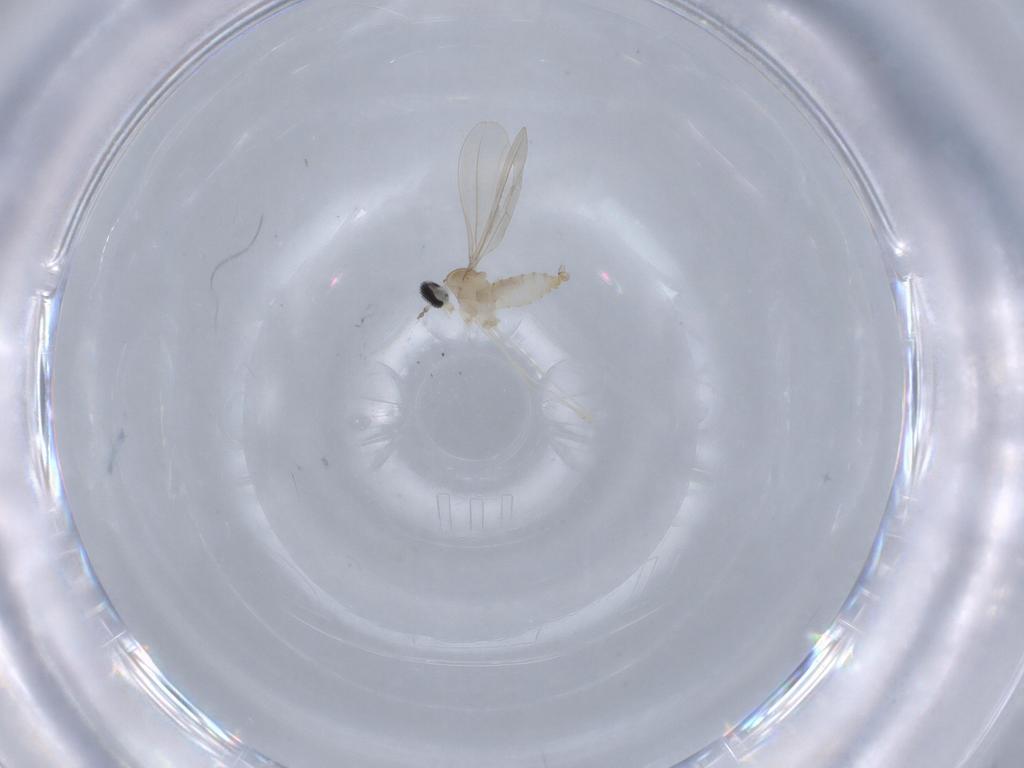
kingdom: Animalia
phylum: Arthropoda
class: Insecta
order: Diptera
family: Cecidomyiidae
